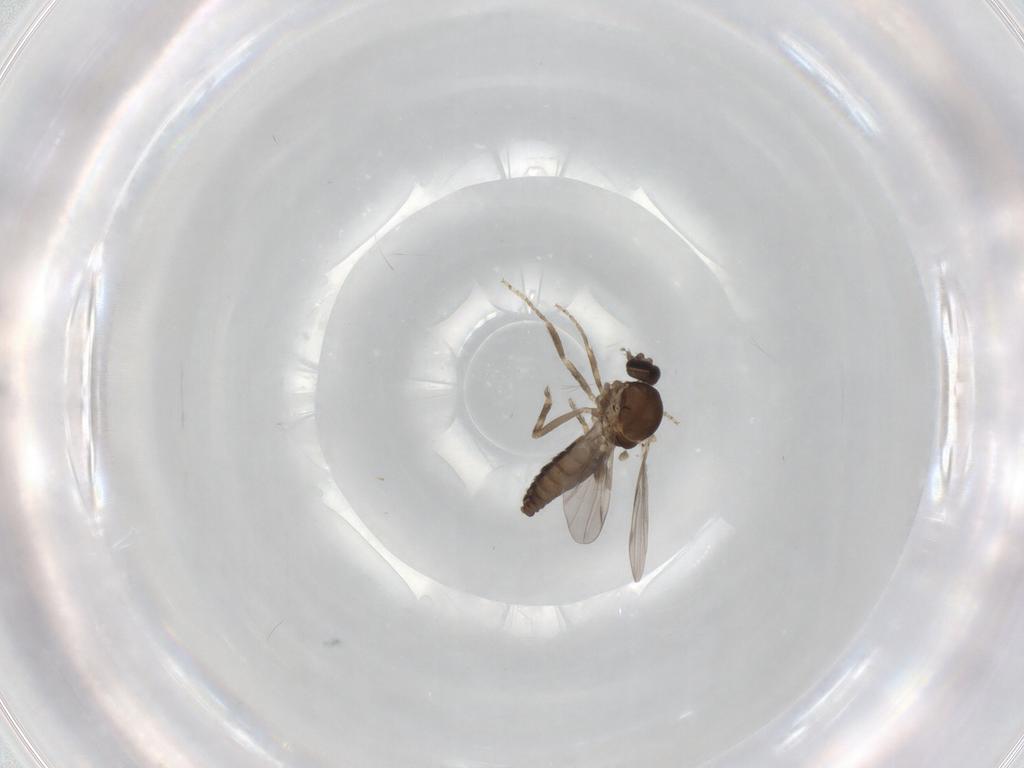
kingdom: Animalia
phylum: Arthropoda
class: Insecta
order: Diptera
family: Ceratopogonidae
